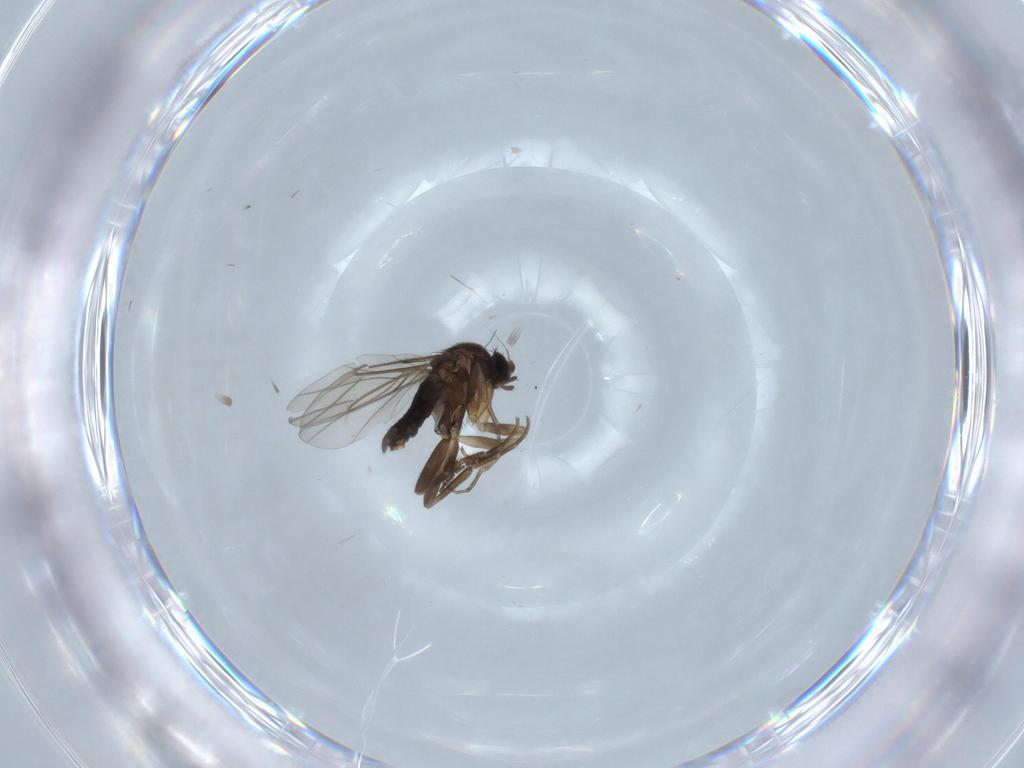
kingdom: Animalia
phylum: Arthropoda
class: Insecta
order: Diptera
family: Phoridae
